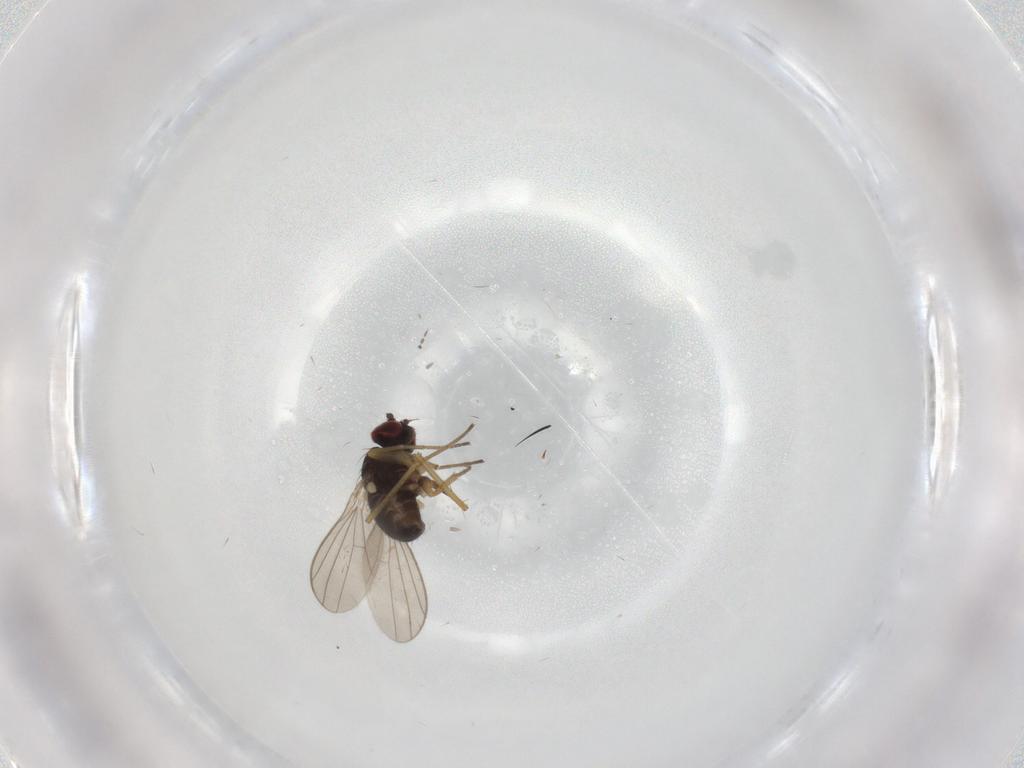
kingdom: Animalia
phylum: Arthropoda
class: Insecta
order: Diptera
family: Dolichopodidae
